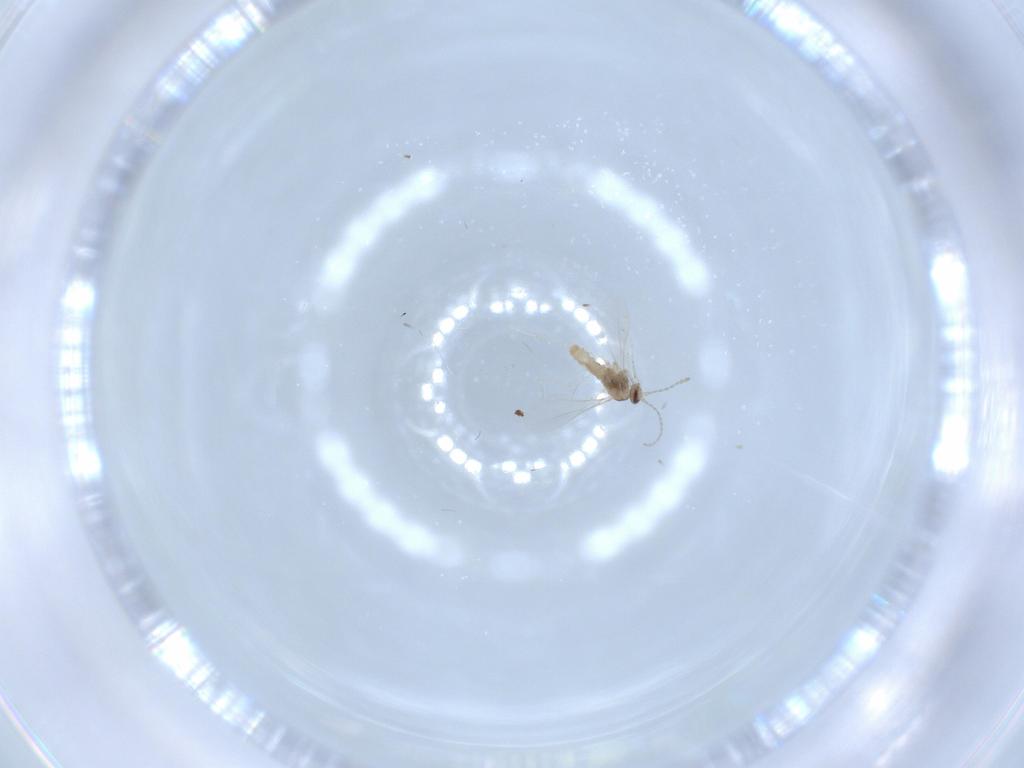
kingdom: Animalia
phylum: Arthropoda
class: Insecta
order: Diptera
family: Cecidomyiidae
